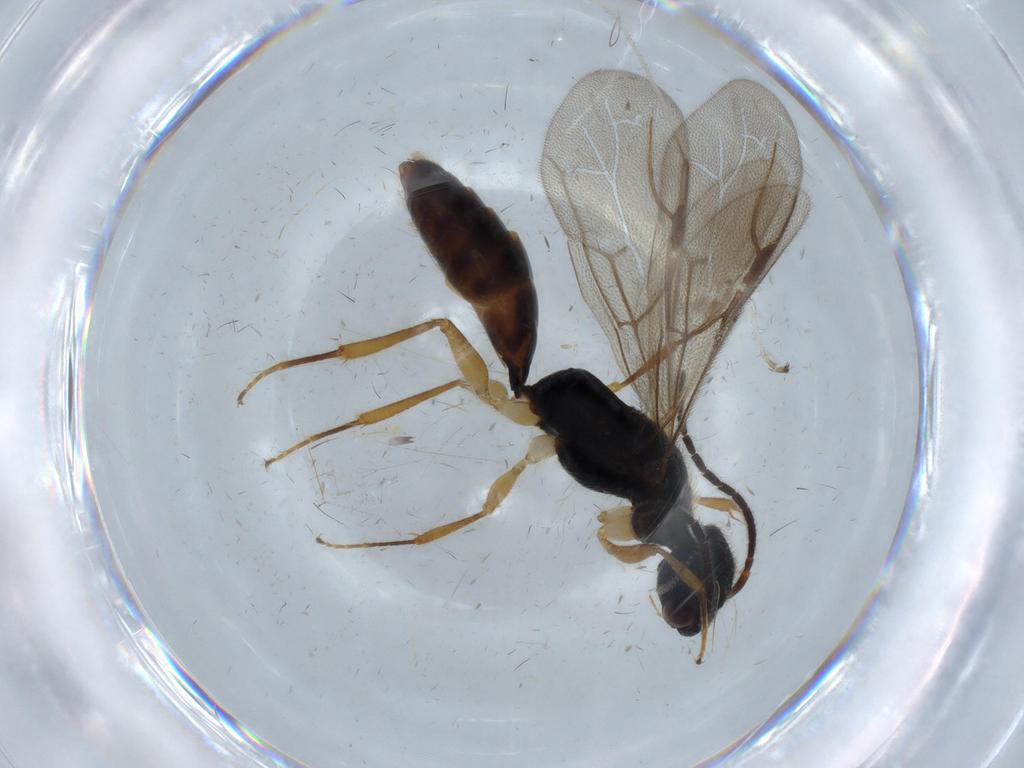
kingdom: Animalia
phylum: Arthropoda
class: Insecta
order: Hymenoptera
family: Bethylidae
